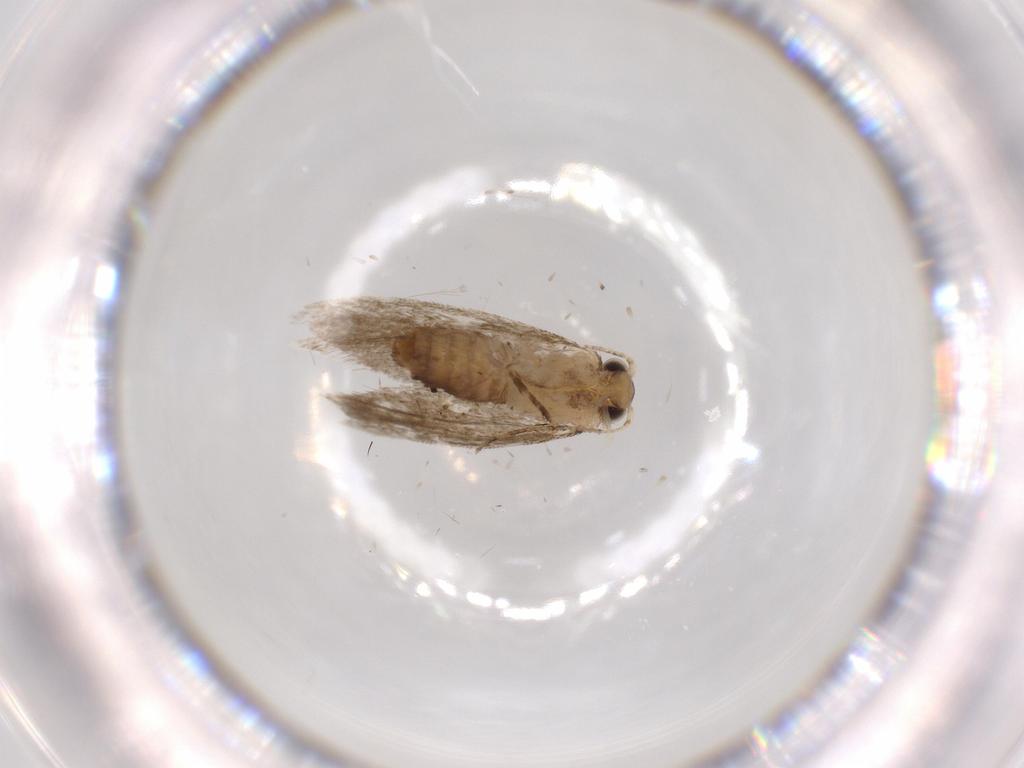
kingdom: Animalia
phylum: Arthropoda
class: Insecta
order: Lepidoptera
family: Tineidae
